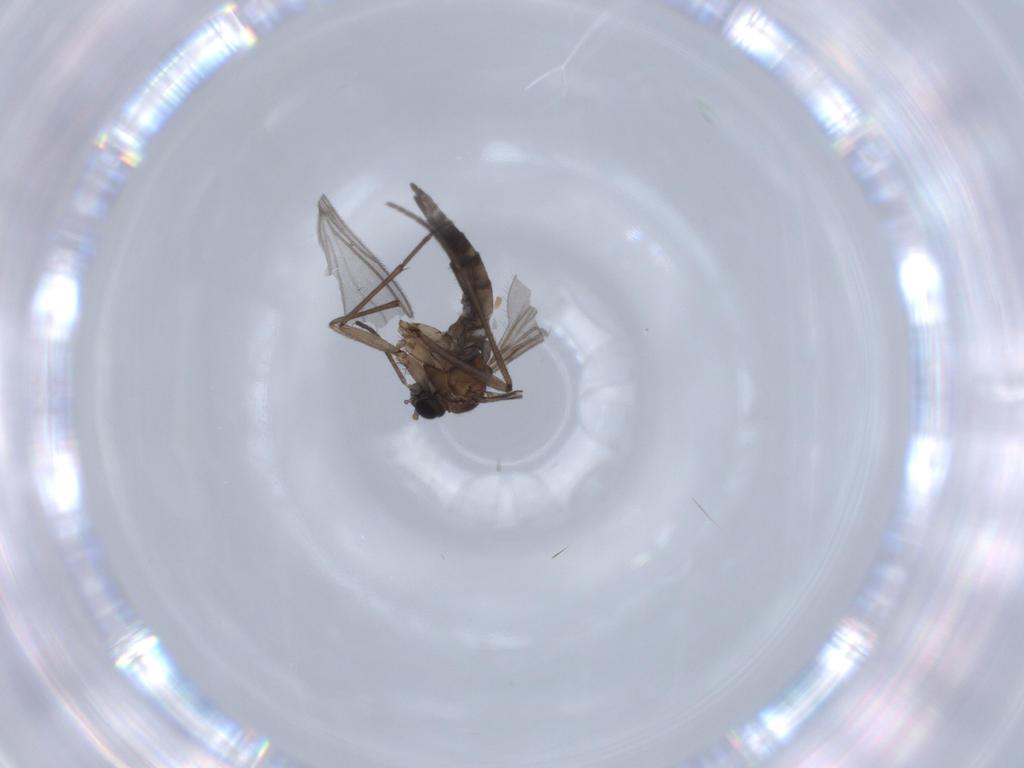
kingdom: Animalia
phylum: Arthropoda
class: Insecta
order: Diptera
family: Sciaridae
